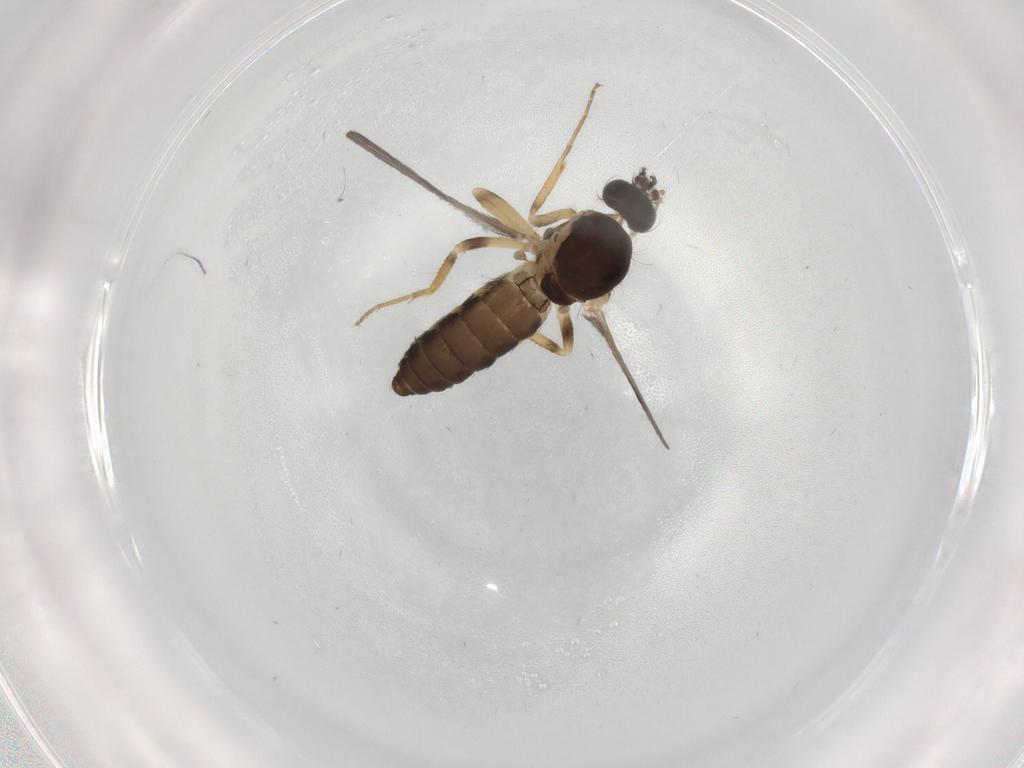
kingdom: Animalia
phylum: Arthropoda
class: Insecta
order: Diptera
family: Ceratopogonidae
